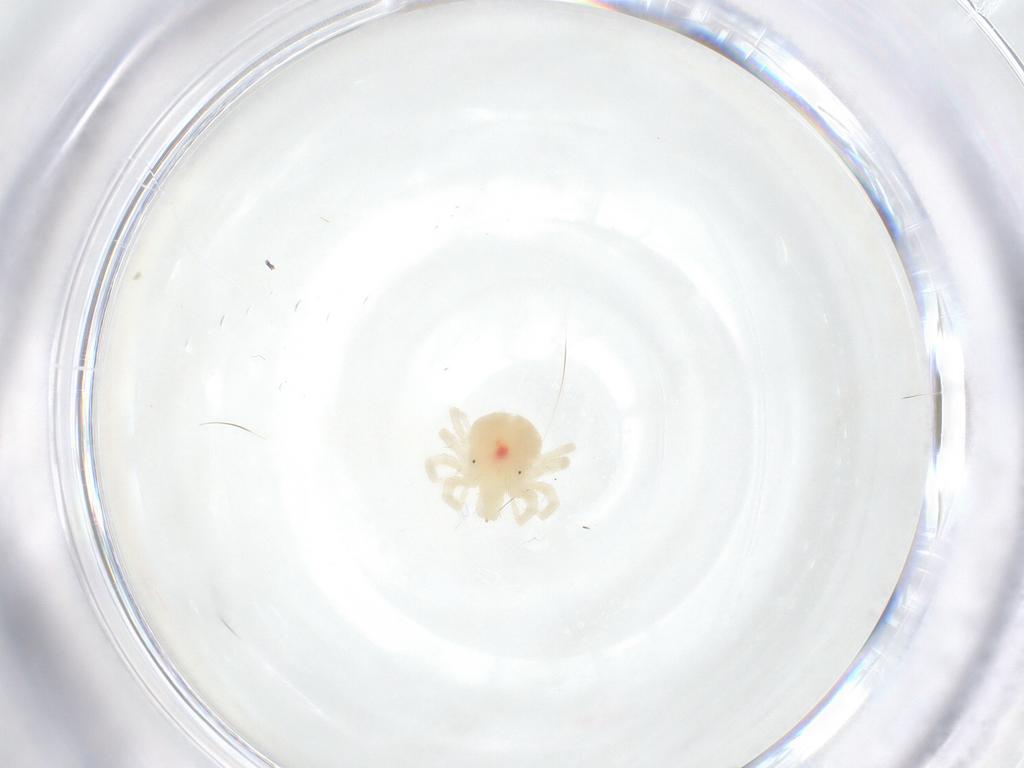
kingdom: Animalia
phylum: Arthropoda
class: Arachnida
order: Trombidiformes
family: Anystidae
